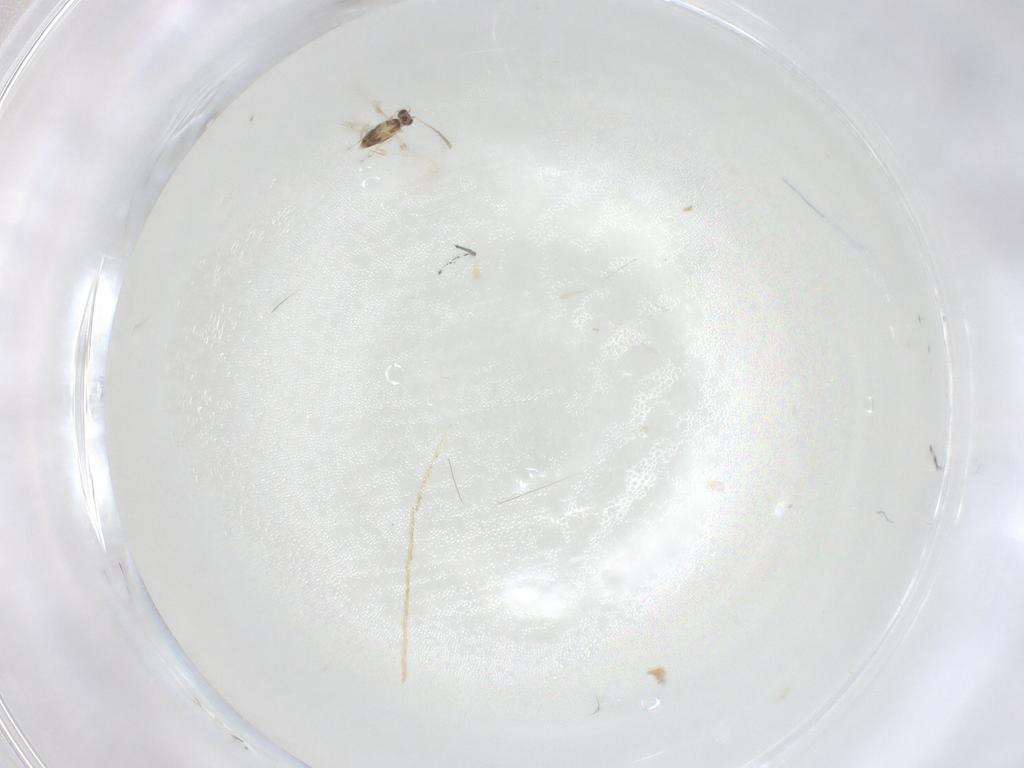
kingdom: Animalia
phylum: Arthropoda
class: Insecta
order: Hymenoptera
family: Mymaridae
